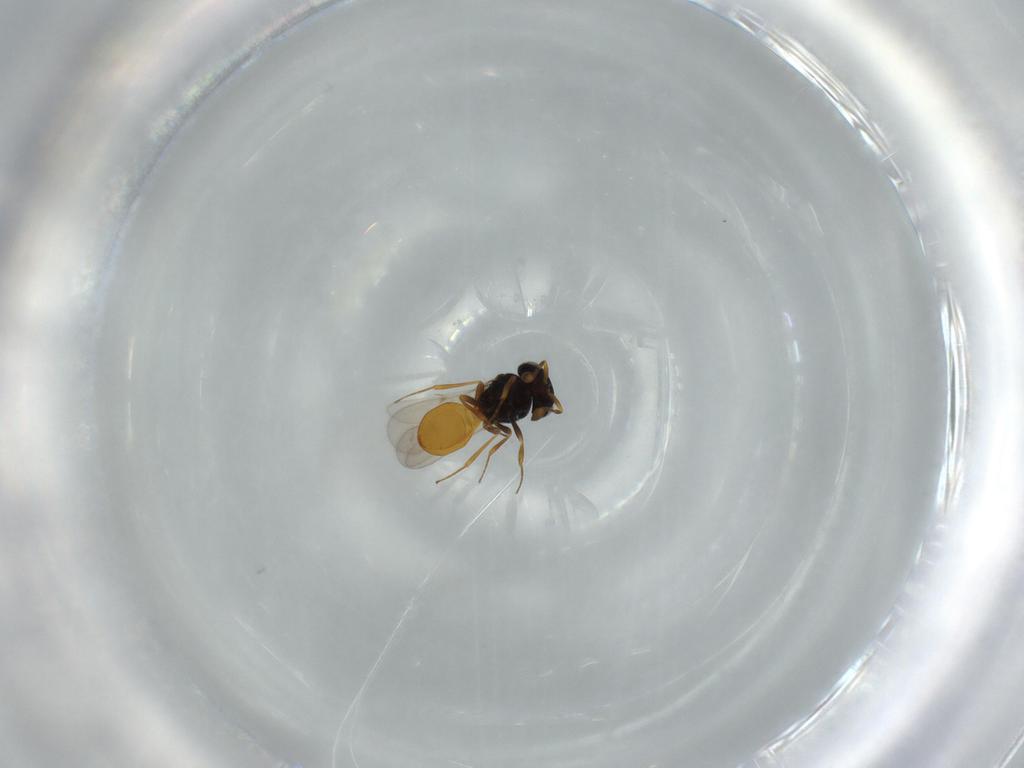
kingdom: Animalia
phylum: Arthropoda
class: Insecta
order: Hymenoptera
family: Scelionidae
